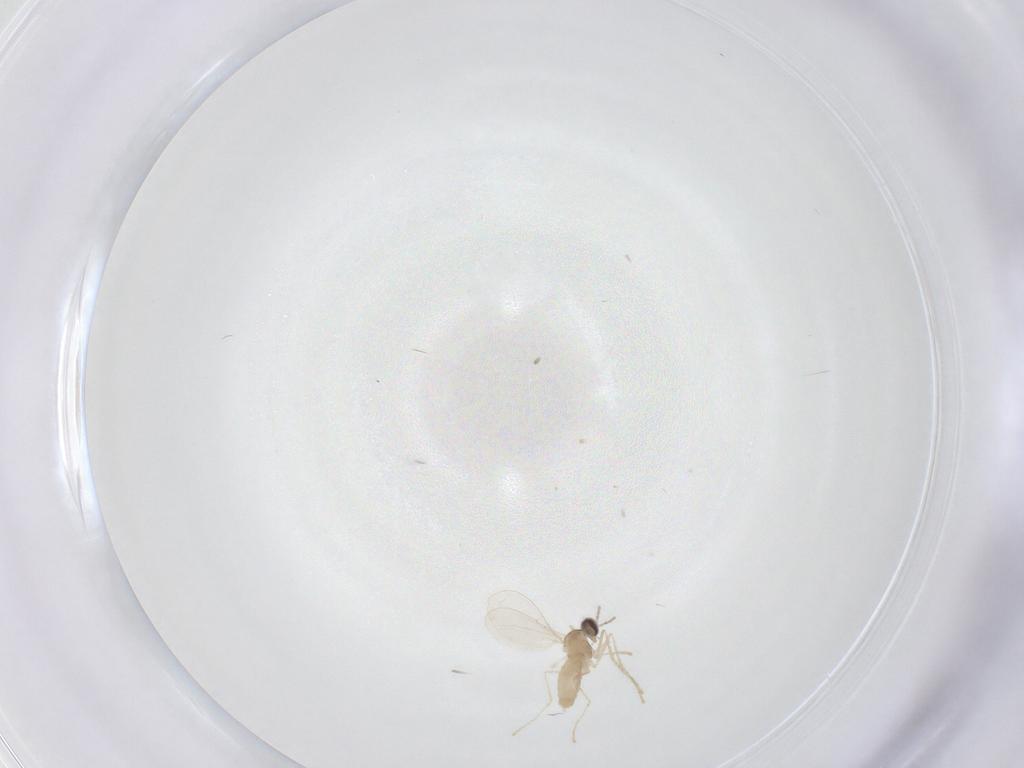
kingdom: Animalia
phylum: Arthropoda
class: Insecta
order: Diptera
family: Cecidomyiidae
